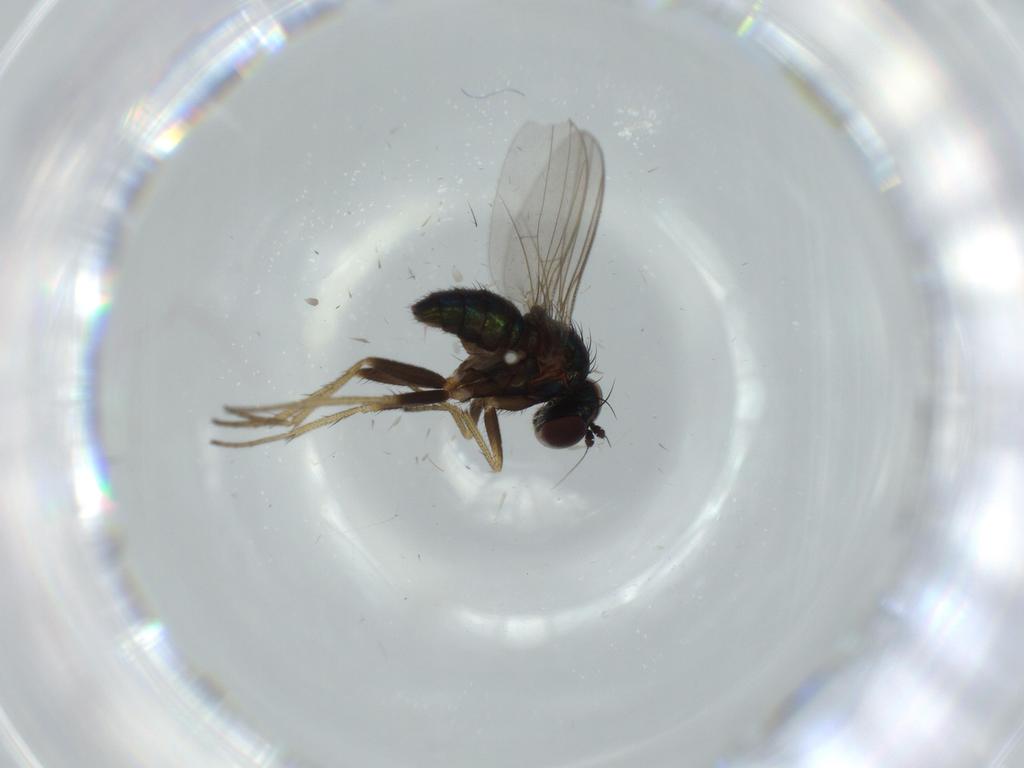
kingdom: Animalia
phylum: Arthropoda
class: Insecta
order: Diptera
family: Dolichopodidae
